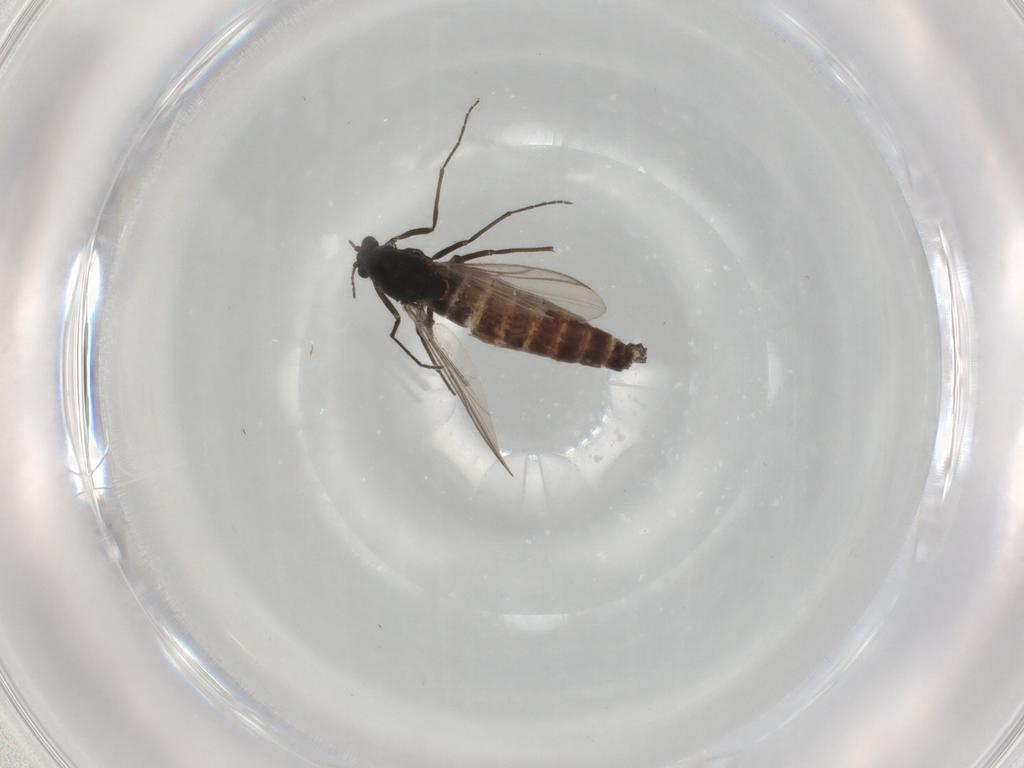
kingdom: Animalia
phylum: Arthropoda
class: Insecta
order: Diptera
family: Chironomidae
